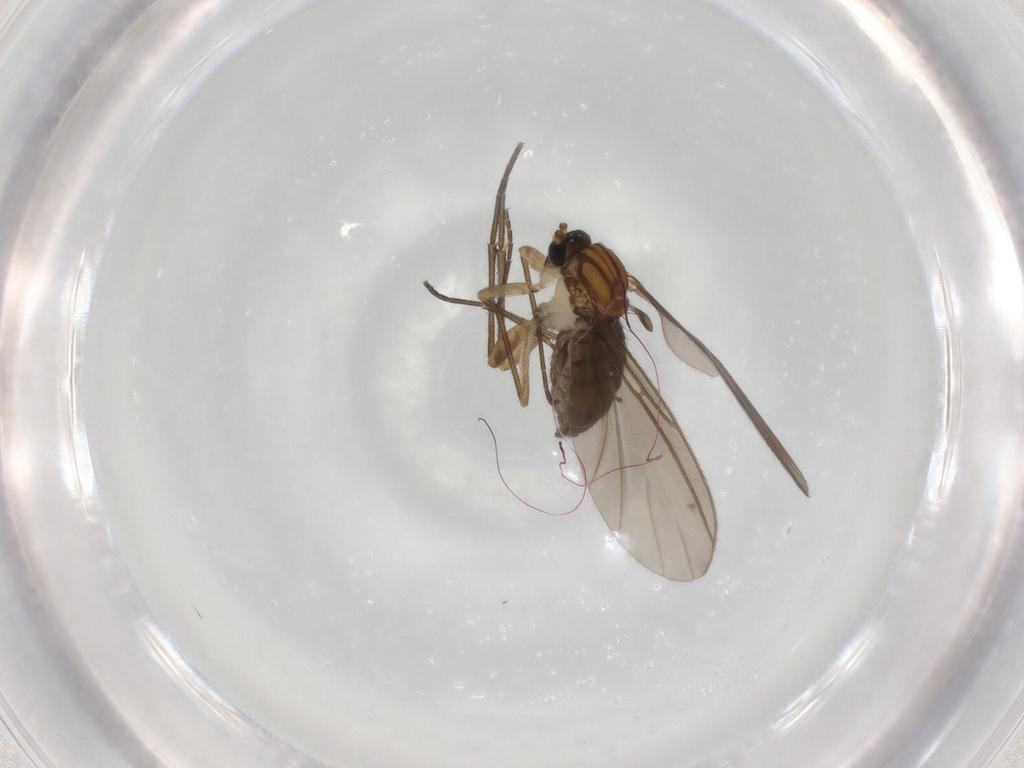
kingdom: Animalia
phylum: Arthropoda
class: Insecta
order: Diptera
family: Sciaridae
